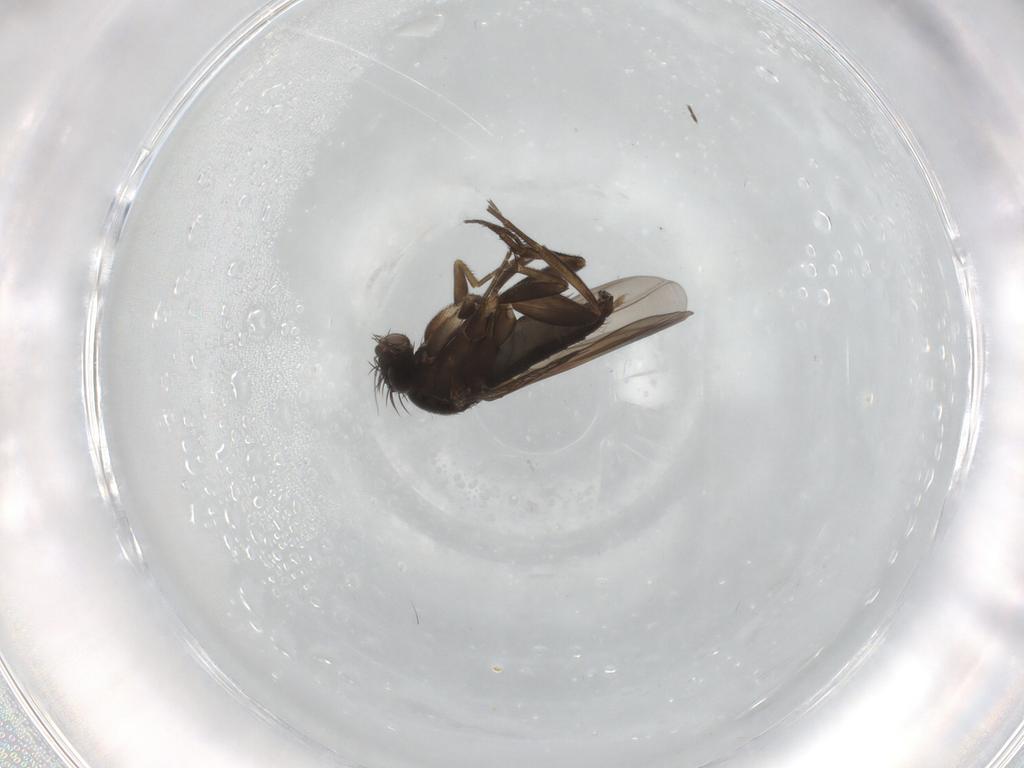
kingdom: Animalia
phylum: Arthropoda
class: Insecta
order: Diptera
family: Phoridae
